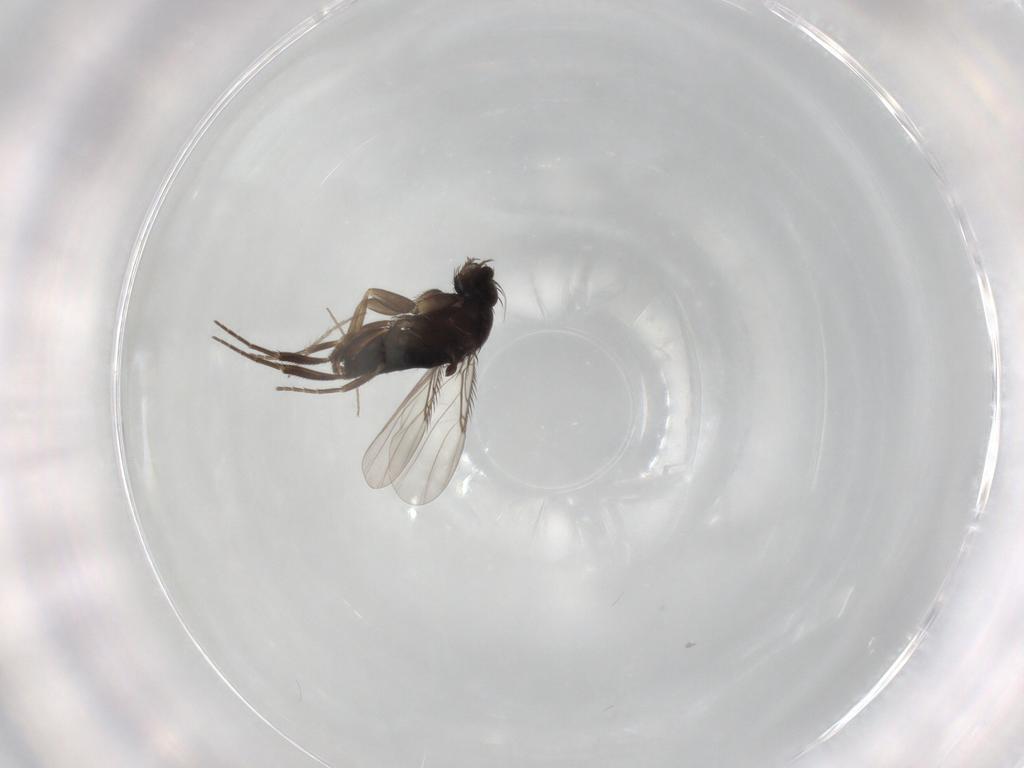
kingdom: Animalia
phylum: Arthropoda
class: Insecta
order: Diptera
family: Phoridae
